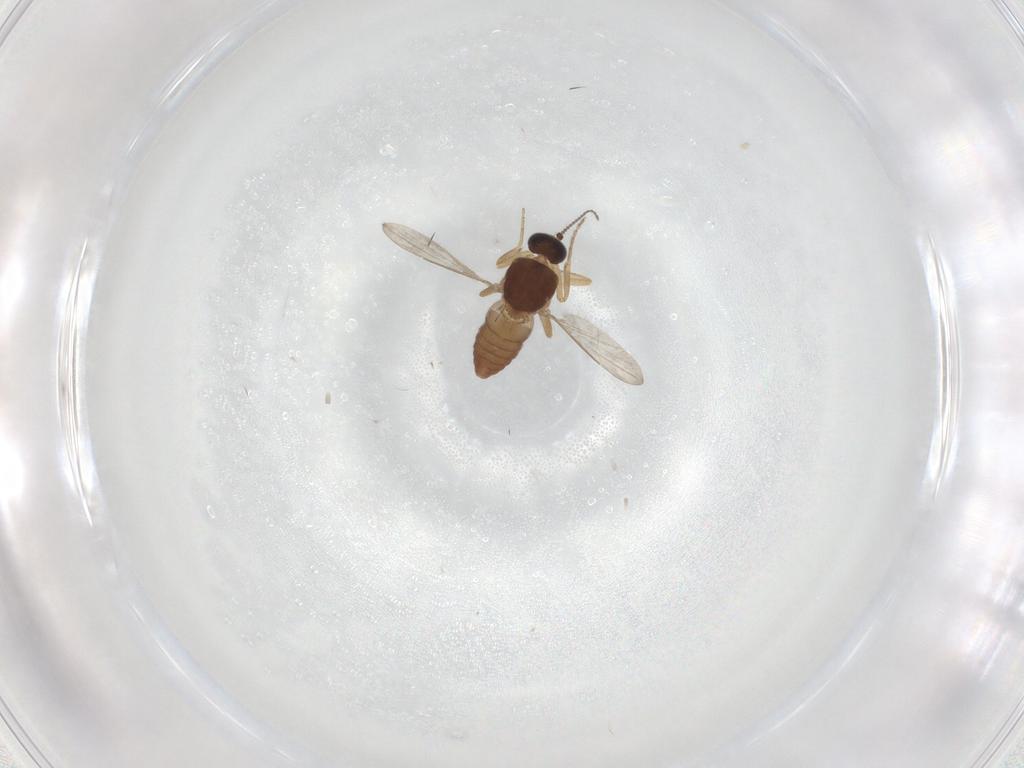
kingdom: Animalia
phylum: Arthropoda
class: Insecta
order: Diptera
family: Ceratopogonidae
